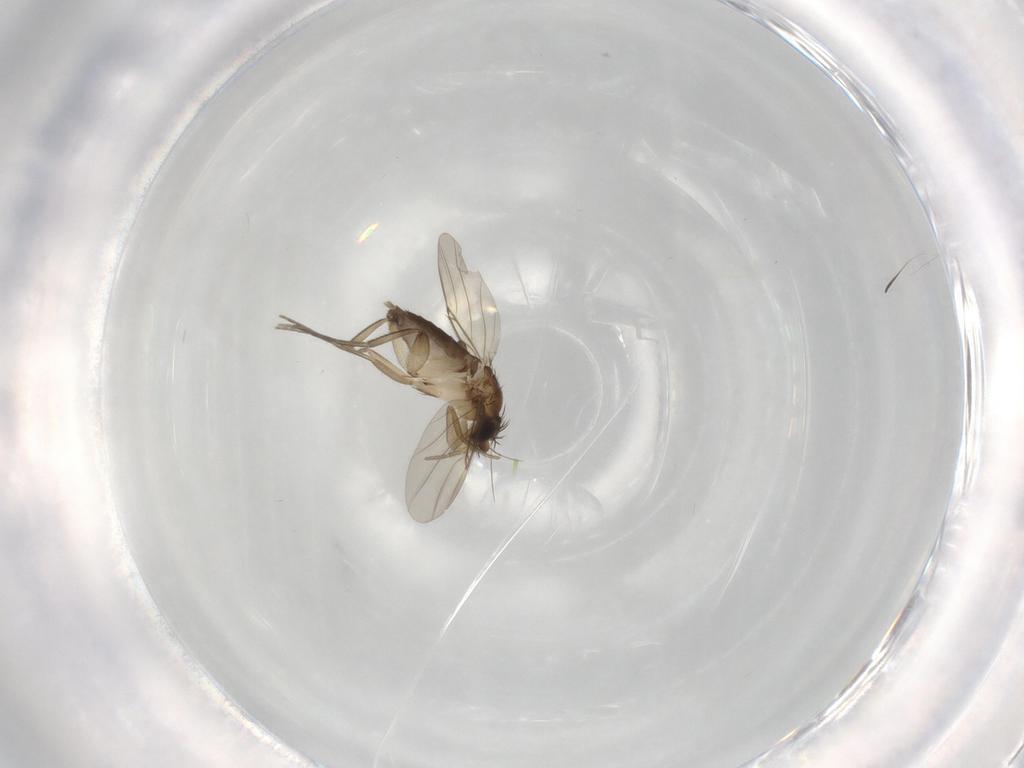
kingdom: Animalia
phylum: Arthropoda
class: Insecta
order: Diptera
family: Phoridae
